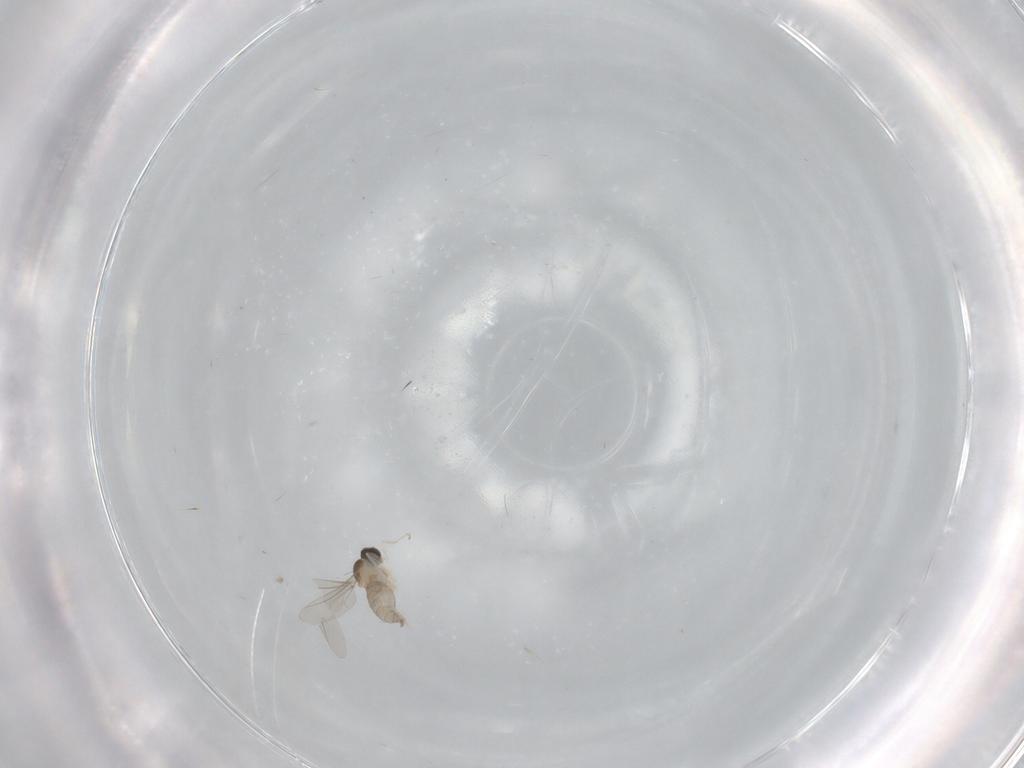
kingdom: Animalia
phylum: Arthropoda
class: Insecta
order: Diptera
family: Cecidomyiidae
